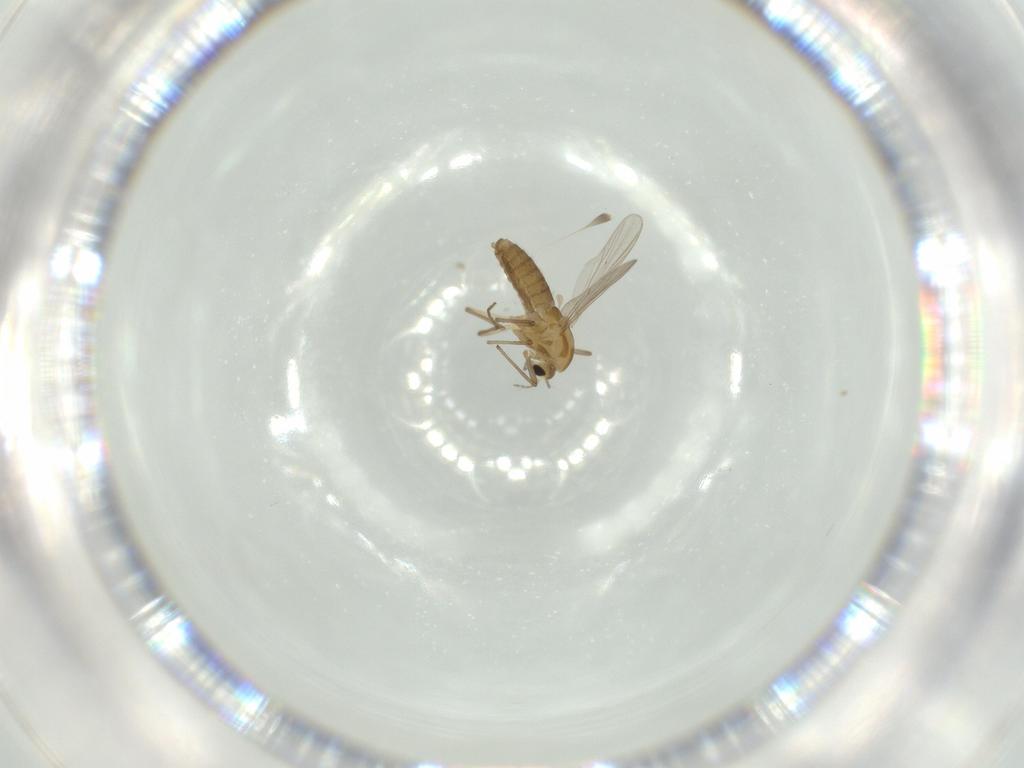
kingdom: Animalia
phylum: Arthropoda
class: Insecta
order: Diptera
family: Chironomidae
